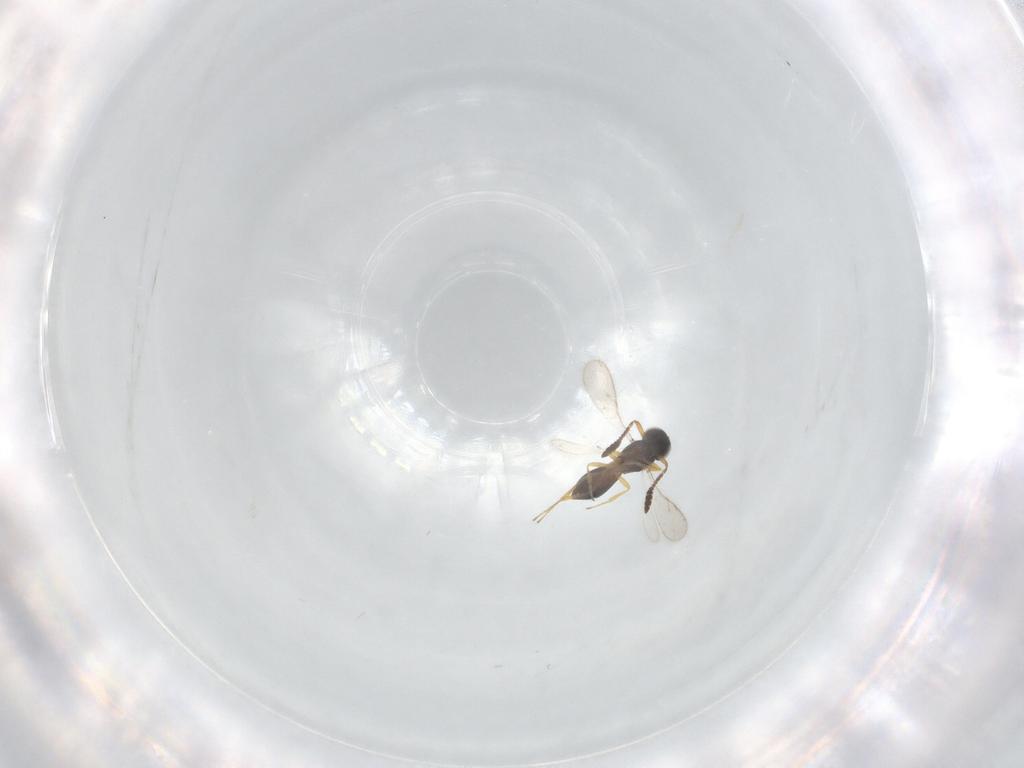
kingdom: Animalia
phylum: Arthropoda
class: Insecta
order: Hymenoptera
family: Scelionidae
